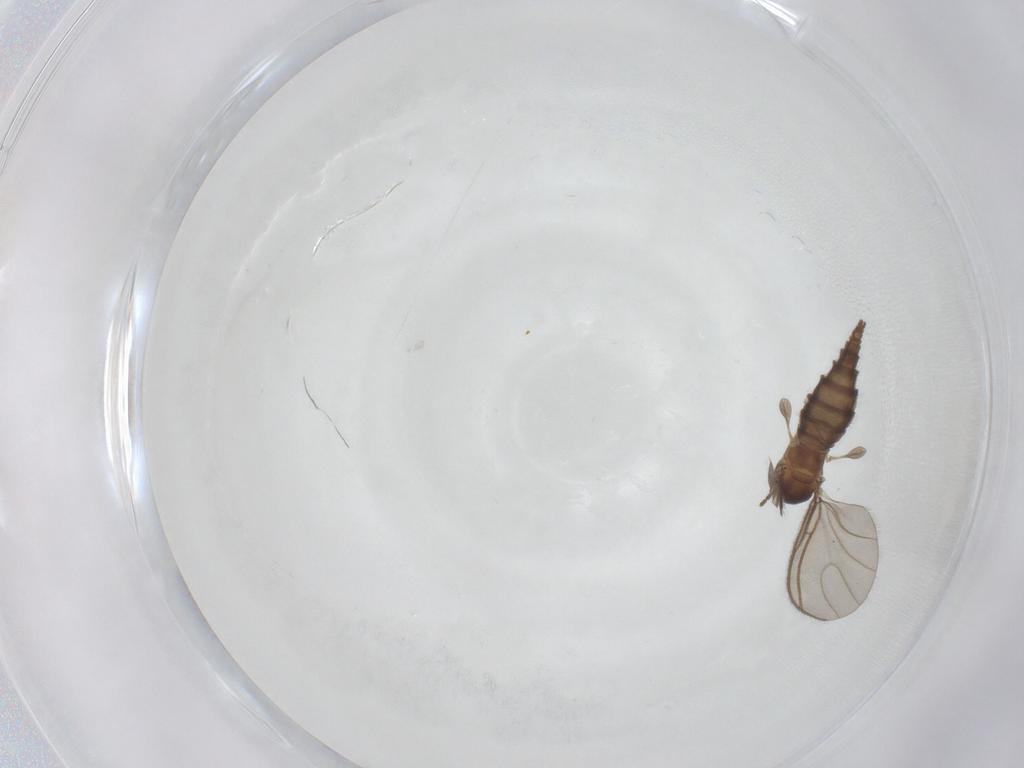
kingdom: Animalia
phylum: Arthropoda
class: Insecta
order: Diptera
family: Sciaridae
